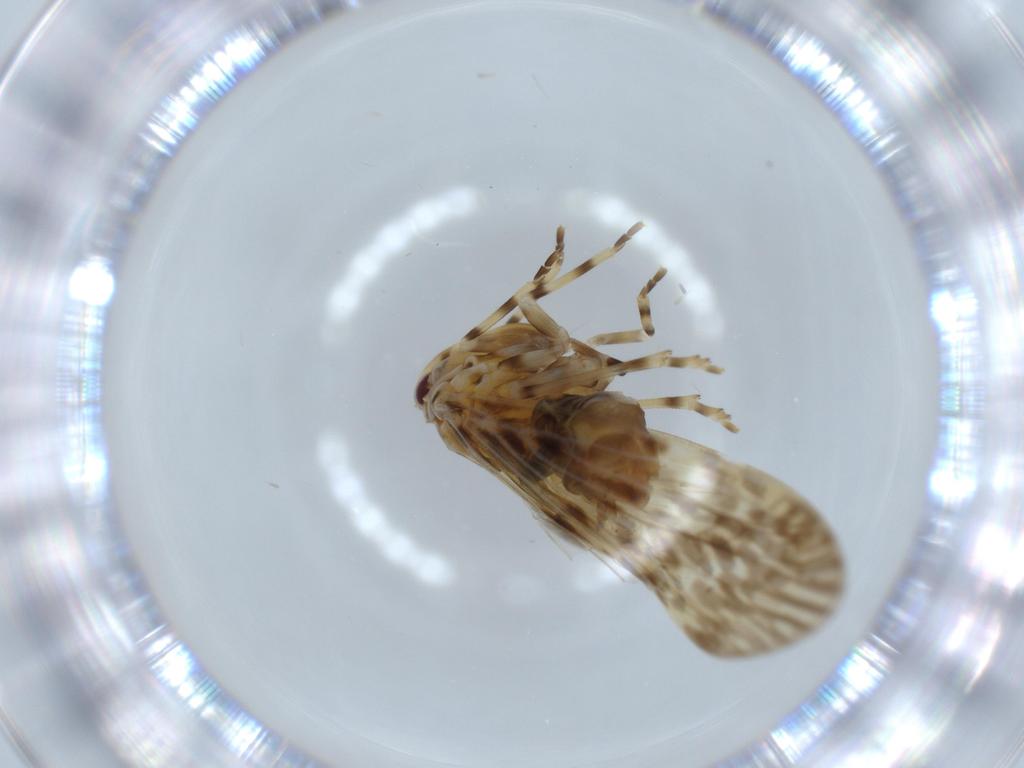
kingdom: Animalia
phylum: Arthropoda
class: Insecta
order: Hemiptera
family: Derbidae
